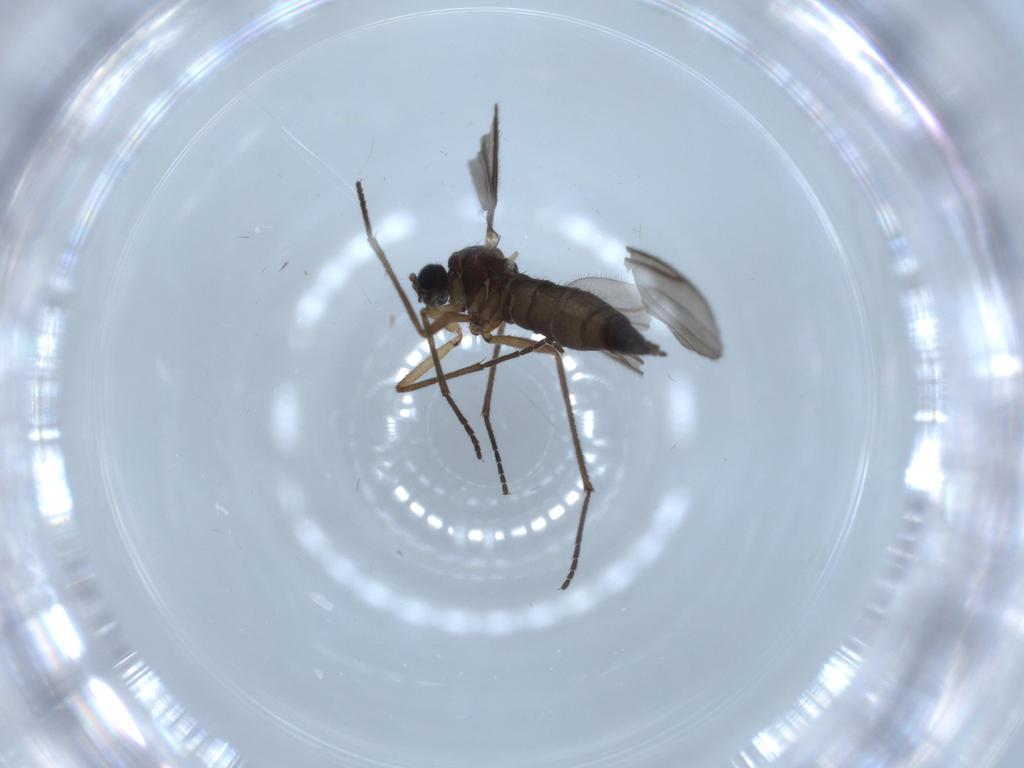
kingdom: Animalia
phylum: Arthropoda
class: Insecta
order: Diptera
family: Sciaridae
